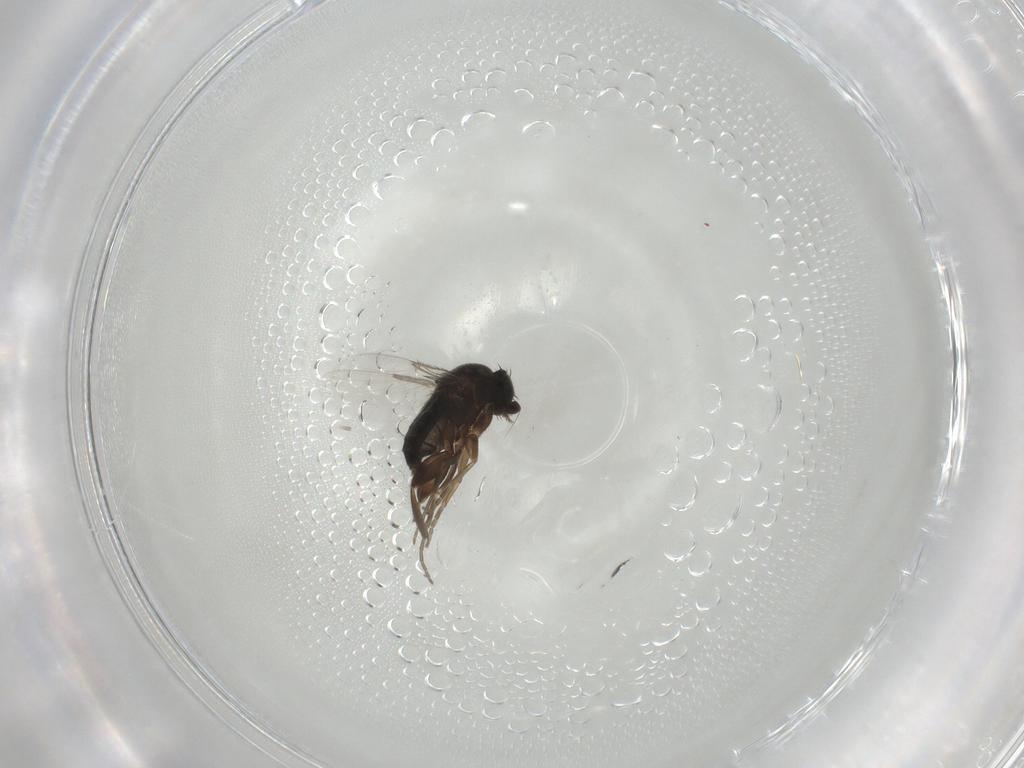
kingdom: Animalia
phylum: Arthropoda
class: Insecta
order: Diptera
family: Phoridae
